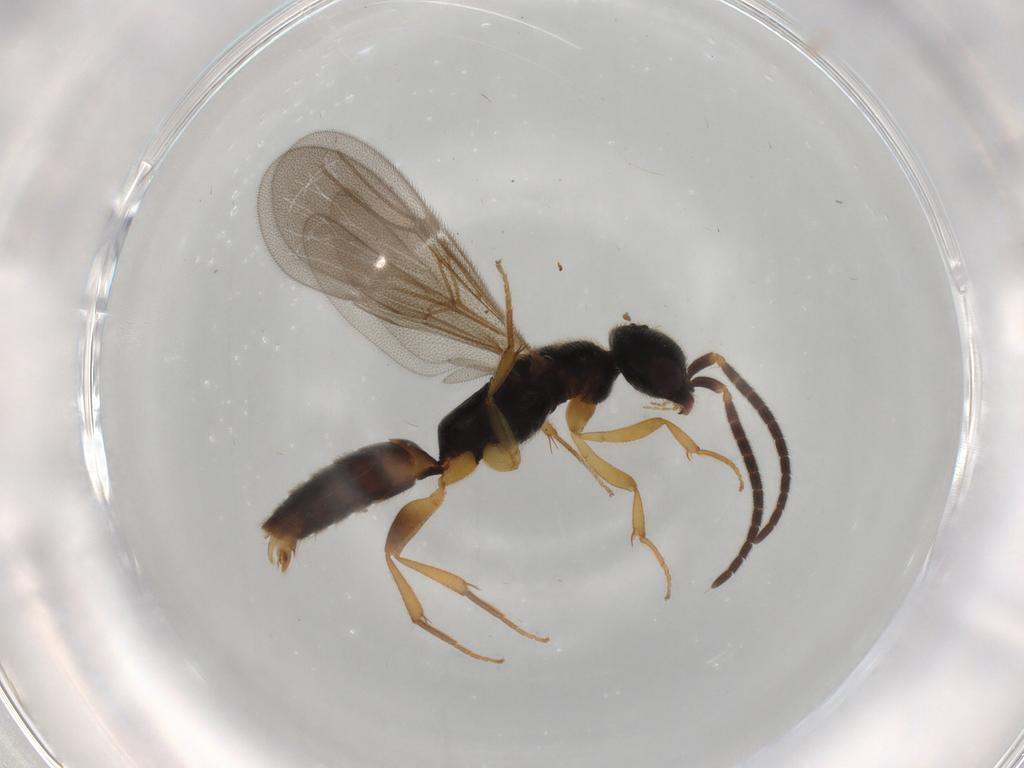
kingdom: Animalia
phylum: Arthropoda
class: Insecta
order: Hymenoptera
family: Bethylidae
